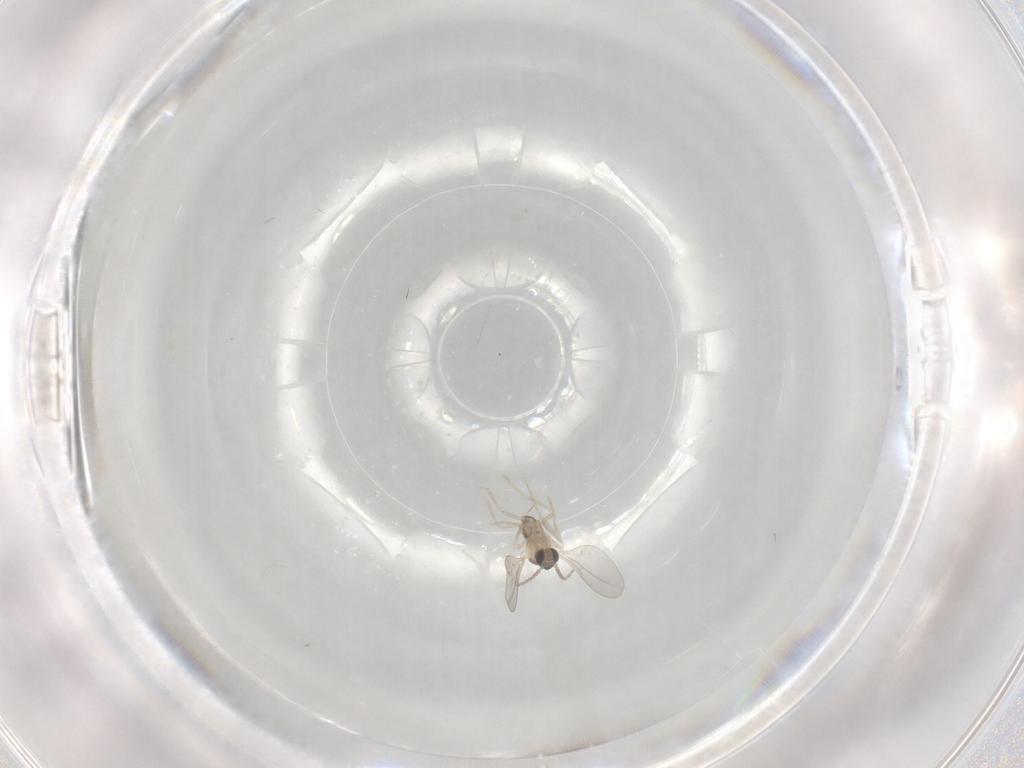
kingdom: Animalia
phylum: Arthropoda
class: Insecta
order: Diptera
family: Cecidomyiidae
